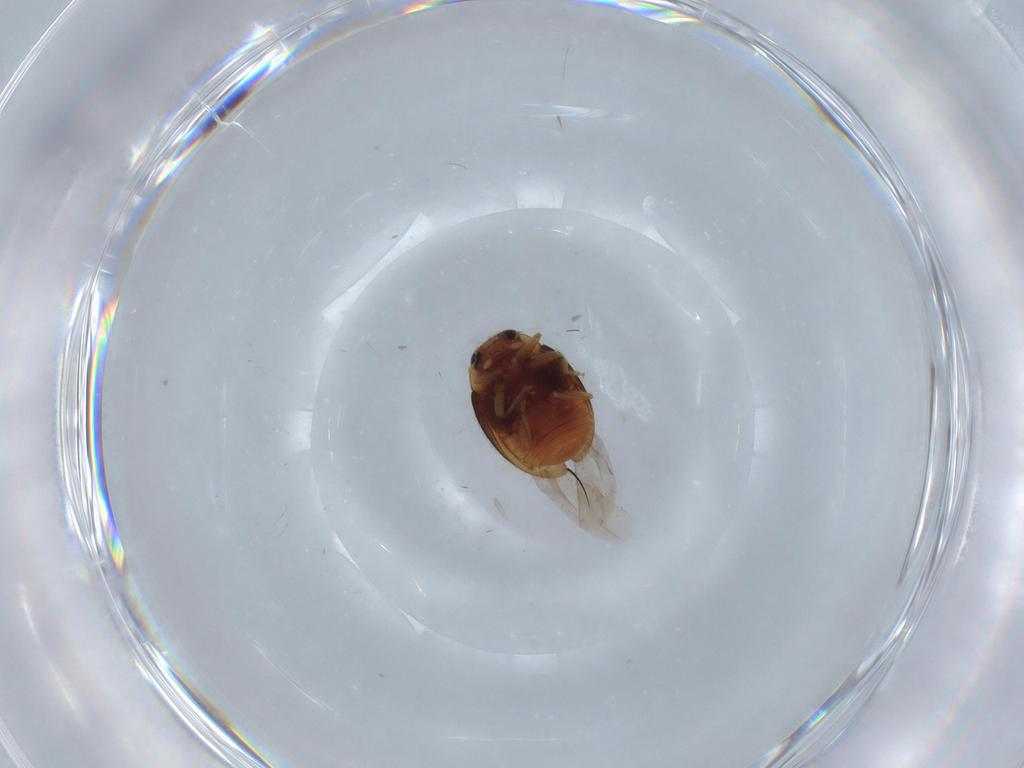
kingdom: Animalia
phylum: Arthropoda
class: Insecta
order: Coleoptera
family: Coccinellidae
